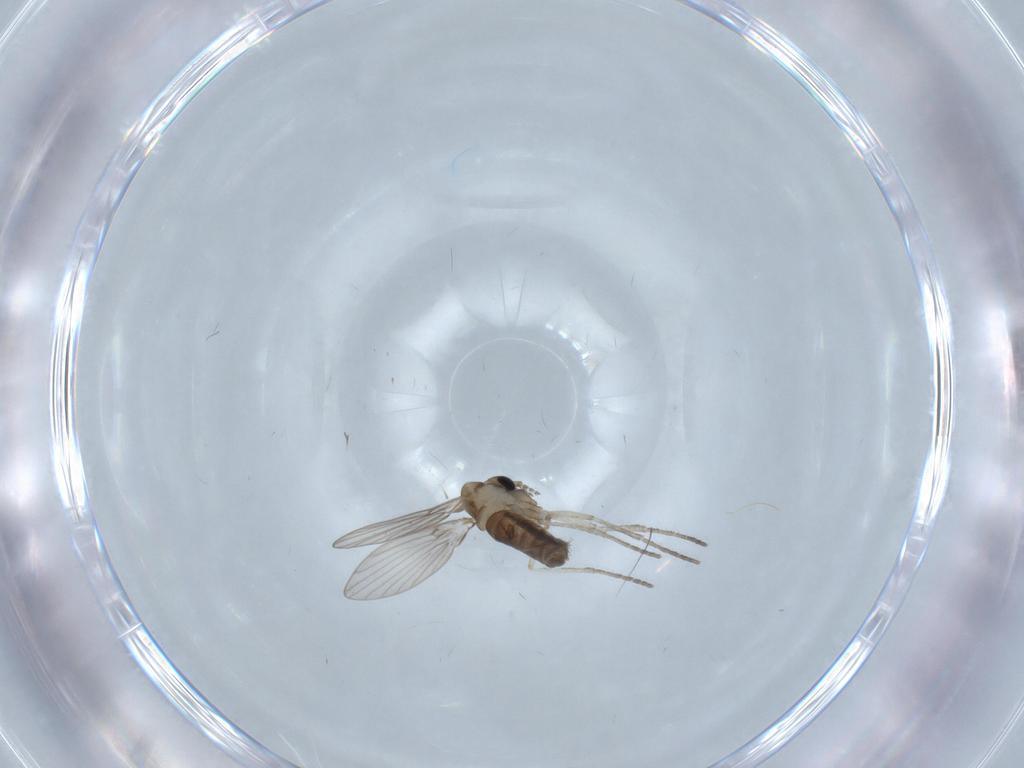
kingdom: Animalia
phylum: Arthropoda
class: Insecta
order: Diptera
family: Dolichopodidae
